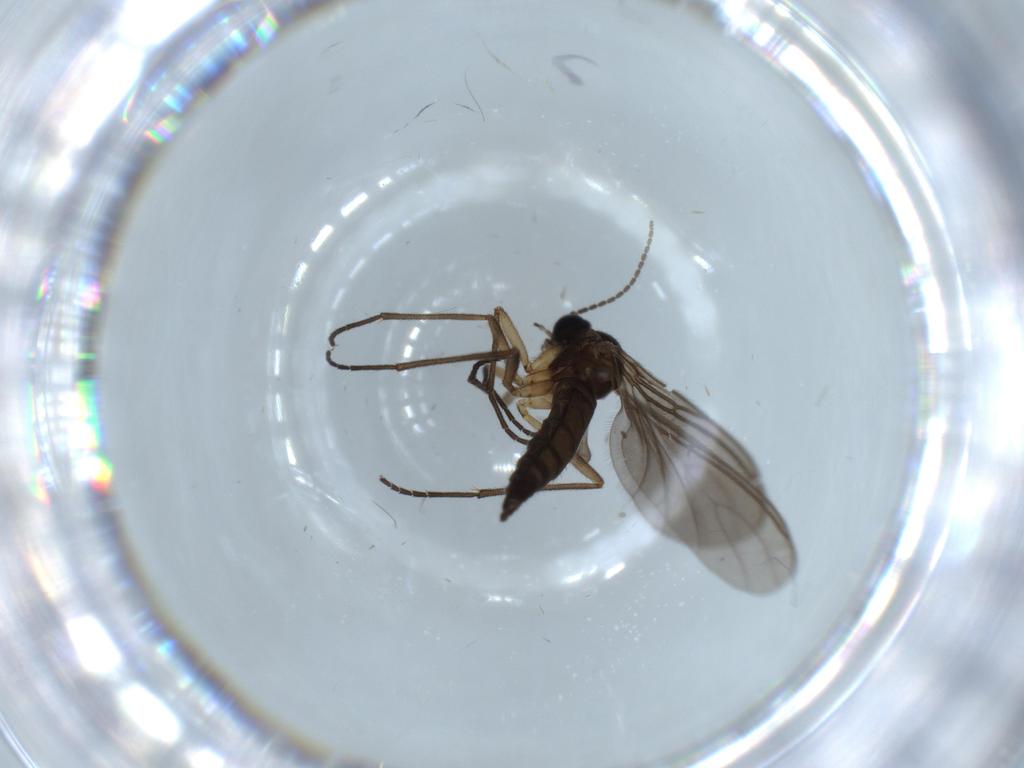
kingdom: Animalia
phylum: Arthropoda
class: Insecta
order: Diptera
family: Sciaridae
